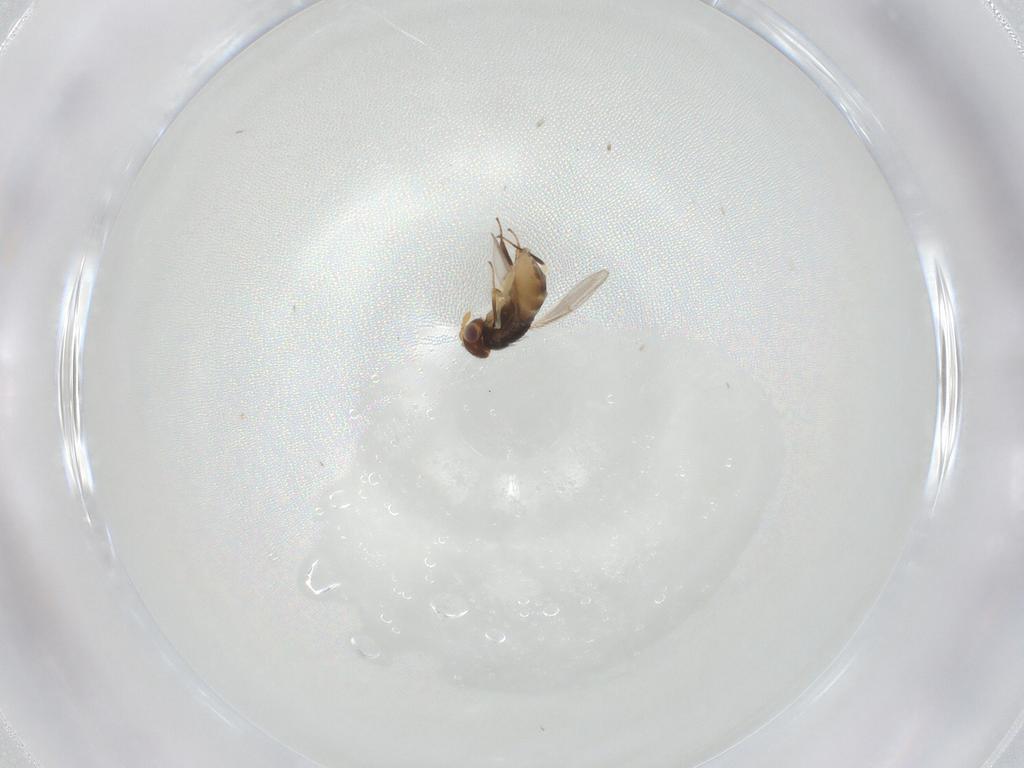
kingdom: Animalia
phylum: Arthropoda
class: Insecta
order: Hymenoptera
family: Aphelinidae
